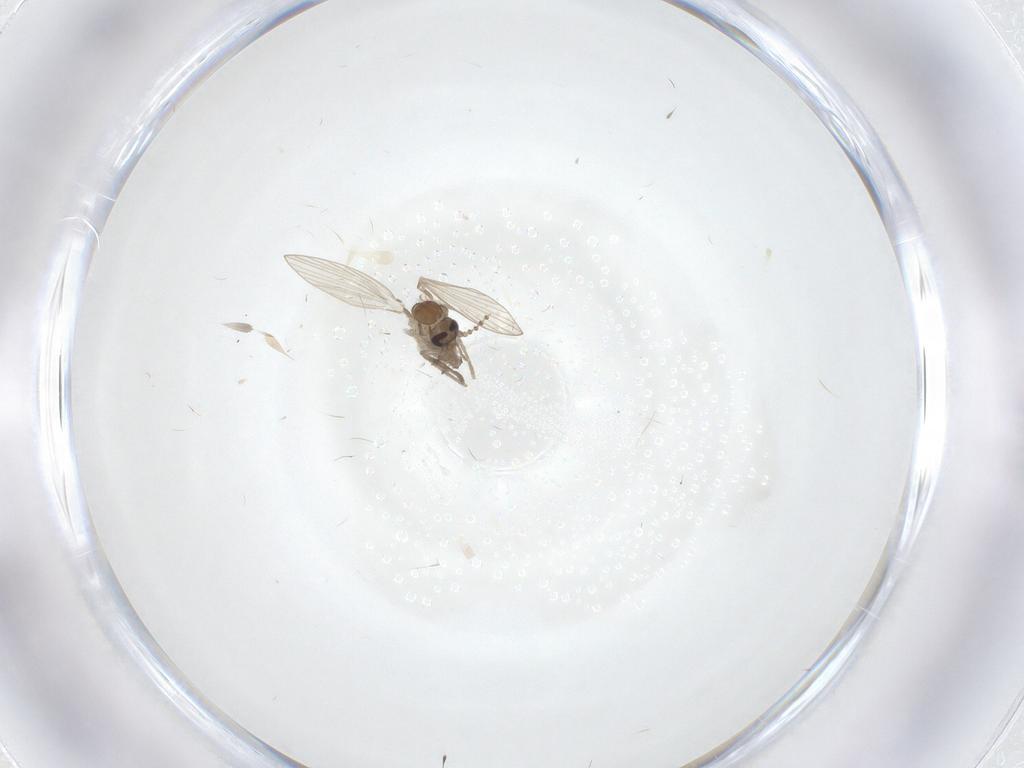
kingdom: Animalia
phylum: Arthropoda
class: Insecta
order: Diptera
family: Psychodidae
